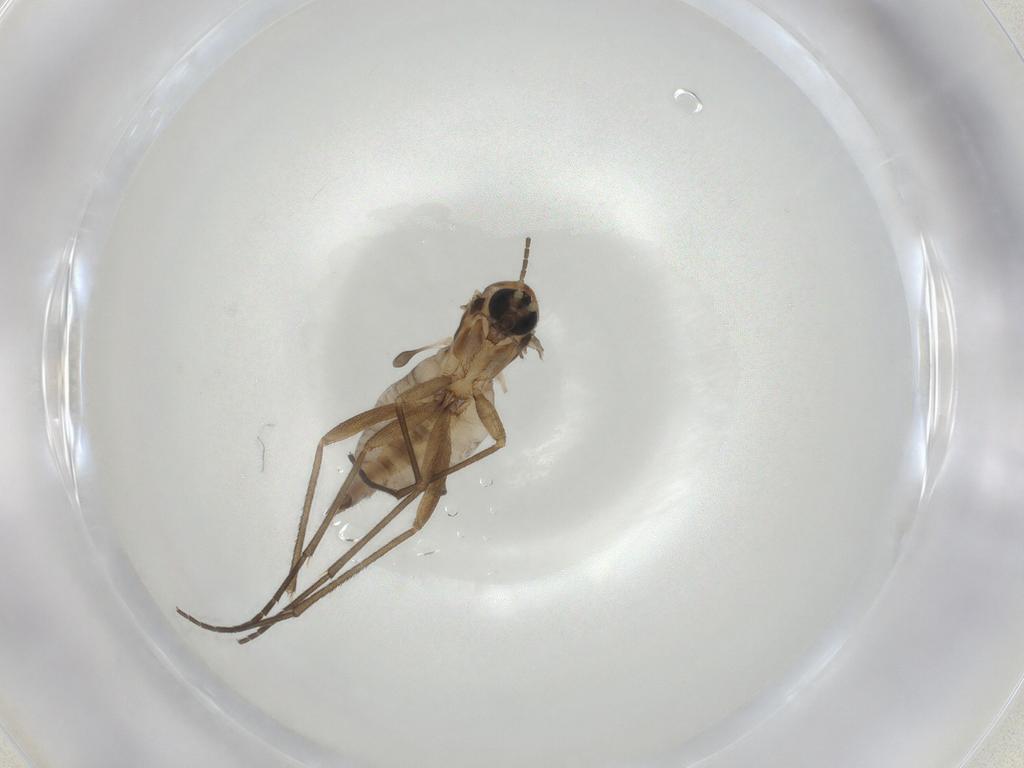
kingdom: Animalia
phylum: Arthropoda
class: Insecta
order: Diptera
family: Sciaridae
